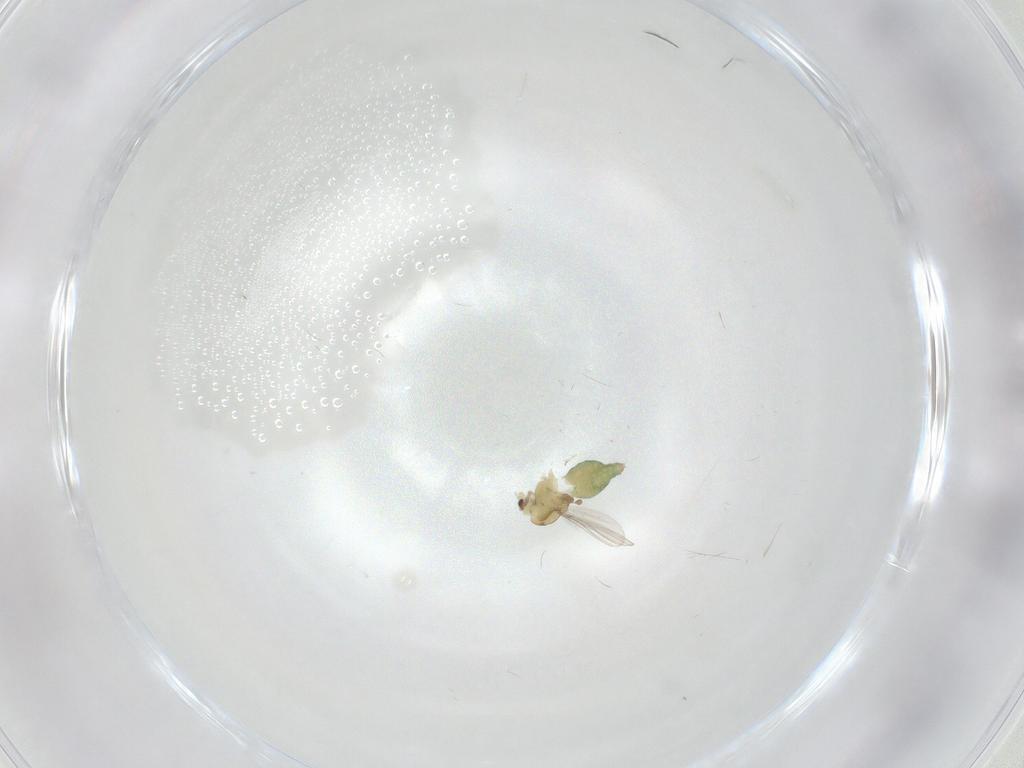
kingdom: Animalia
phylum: Arthropoda
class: Insecta
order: Diptera
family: Chironomidae
